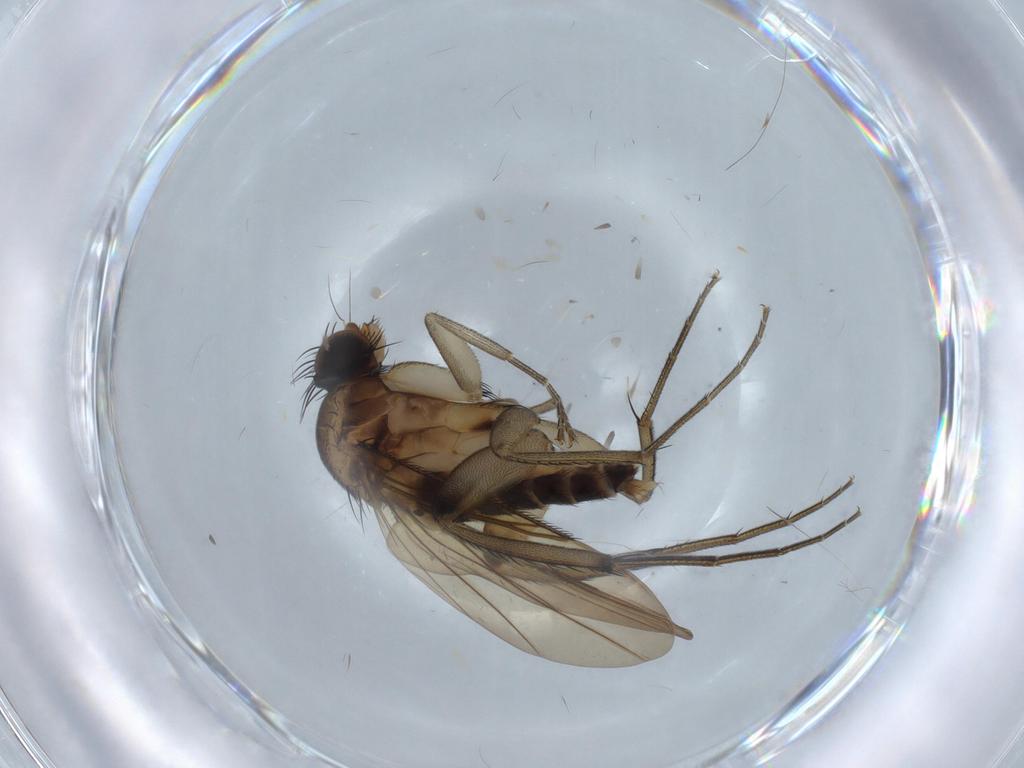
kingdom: Animalia
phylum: Arthropoda
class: Insecta
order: Diptera
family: Phoridae
